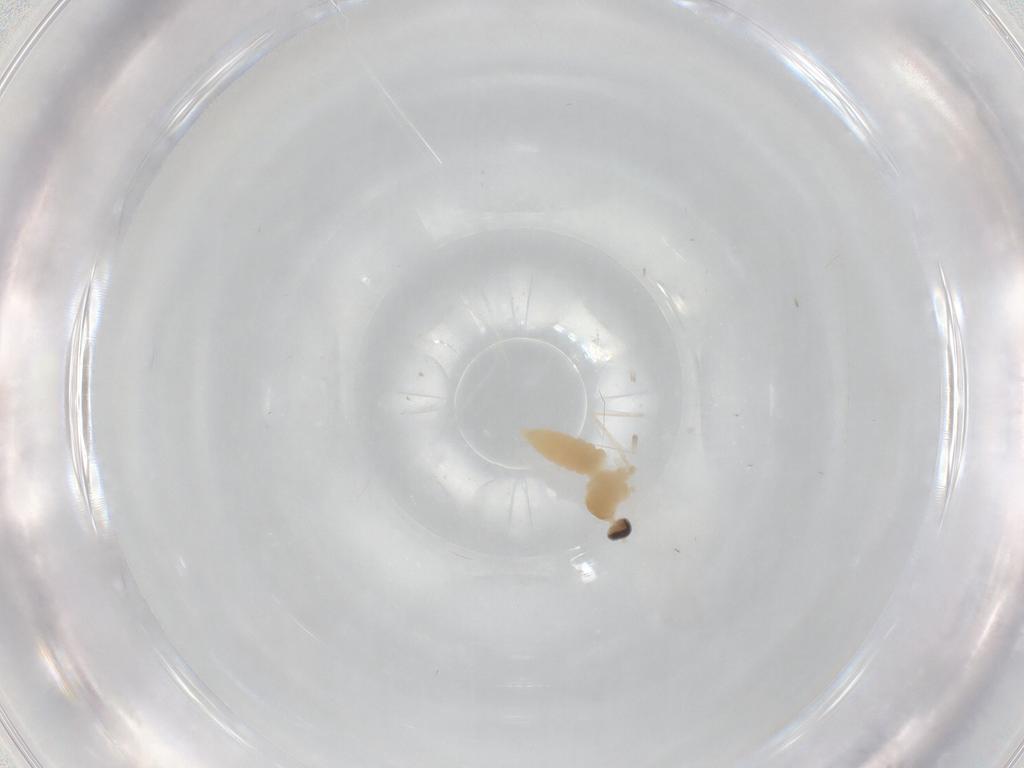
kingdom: Animalia
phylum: Arthropoda
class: Insecta
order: Diptera
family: Cecidomyiidae
